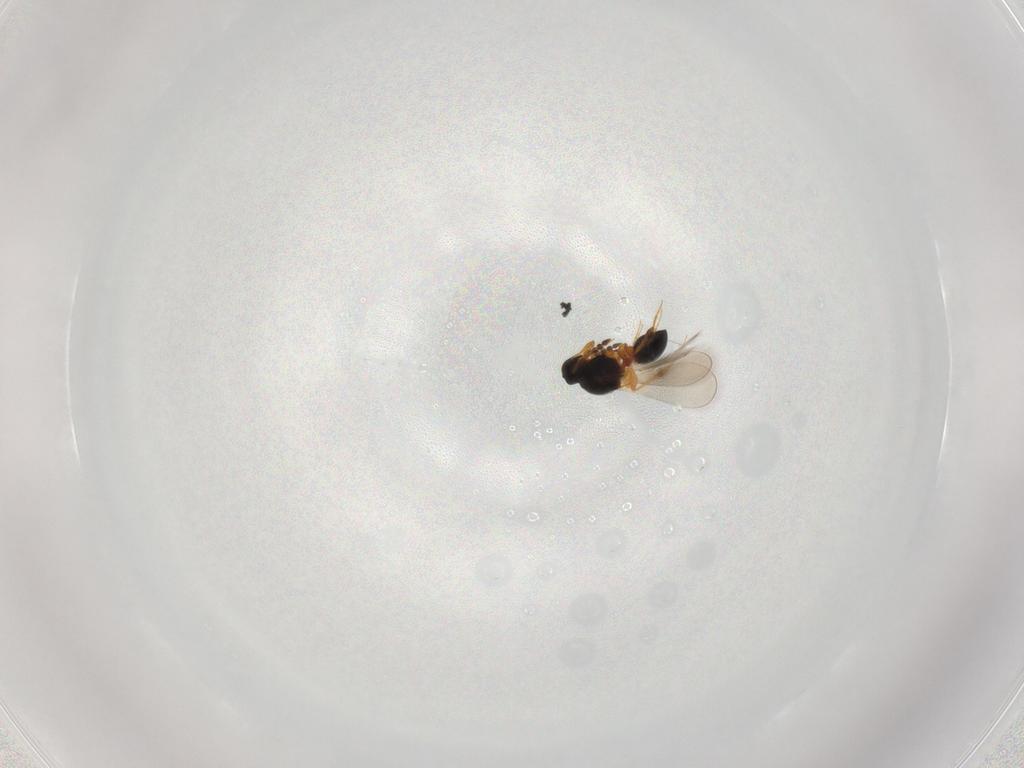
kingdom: Animalia
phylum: Arthropoda
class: Insecta
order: Hymenoptera
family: Platygastridae
